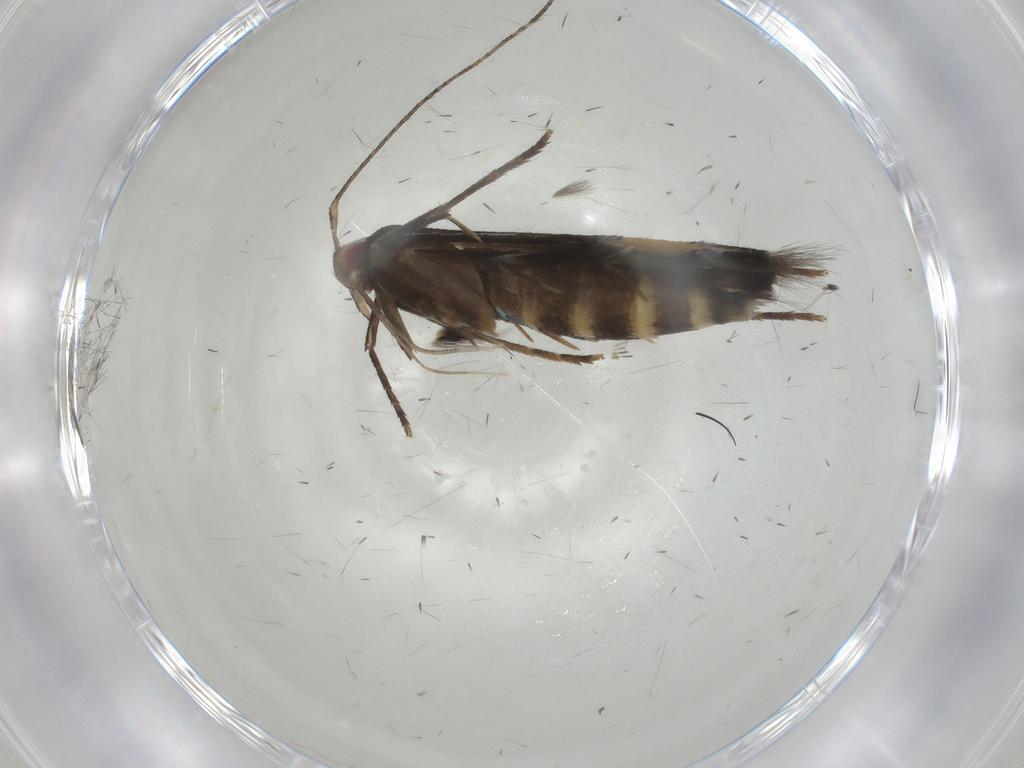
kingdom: Animalia
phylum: Arthropoda
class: Insecta
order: Lepidoptera
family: Cosmopterigidae
